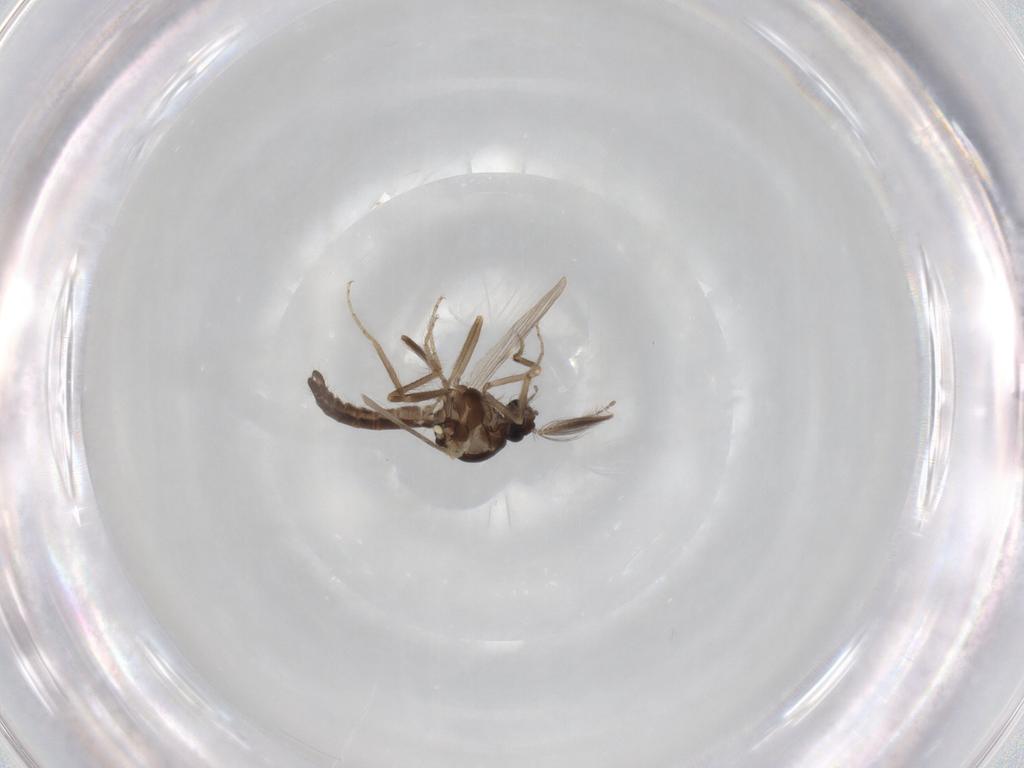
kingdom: Animalia
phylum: Arthropoda
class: Insecta
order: Diptera
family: Ceratopogonidae
